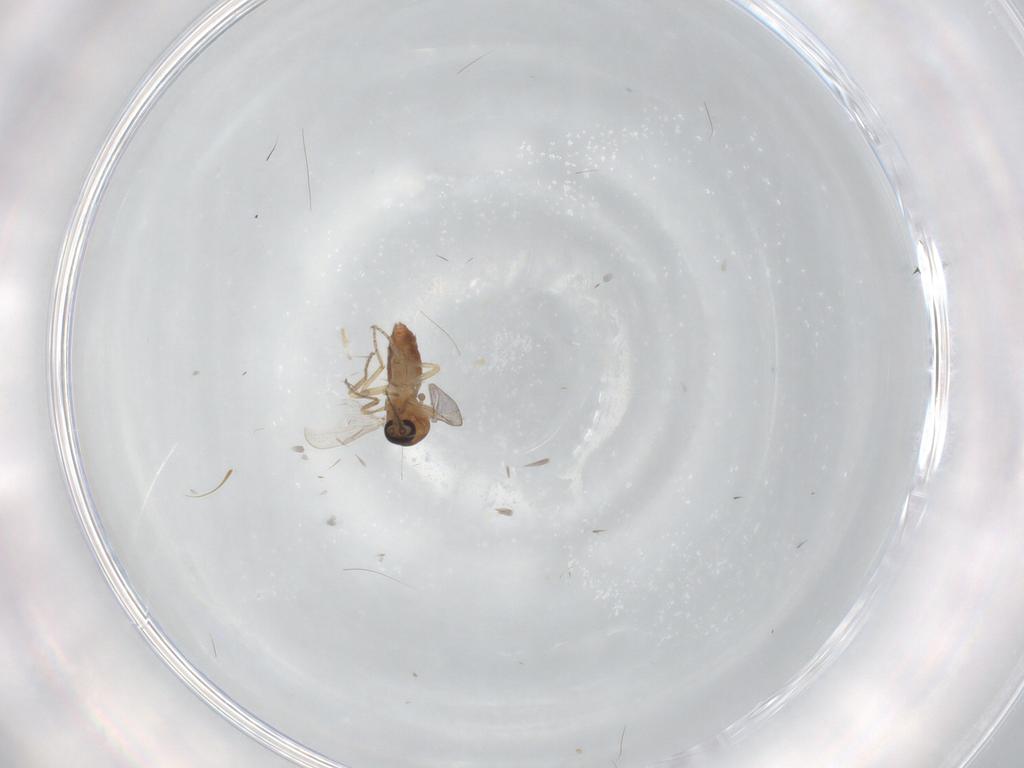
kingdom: Animalia
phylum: Arthropoda
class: Insecta
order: Diptera
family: Ceratopogonidae
